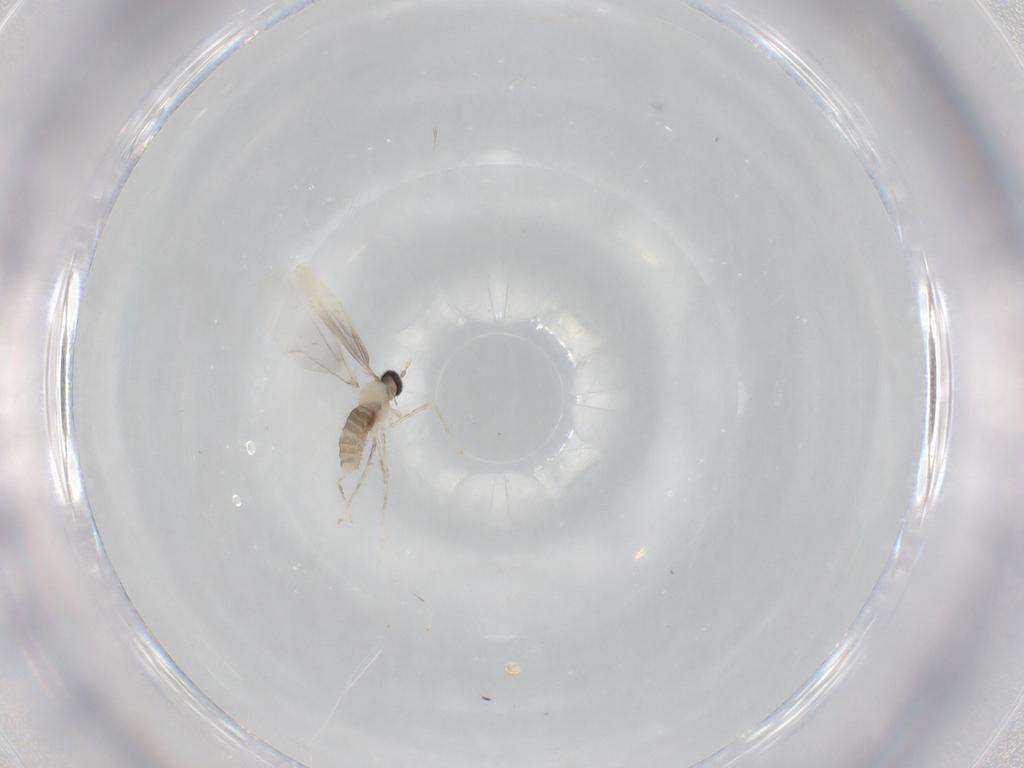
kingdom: Animalia
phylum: Arthropoda
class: Insecta
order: Diptera
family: Cecidomyiidae
